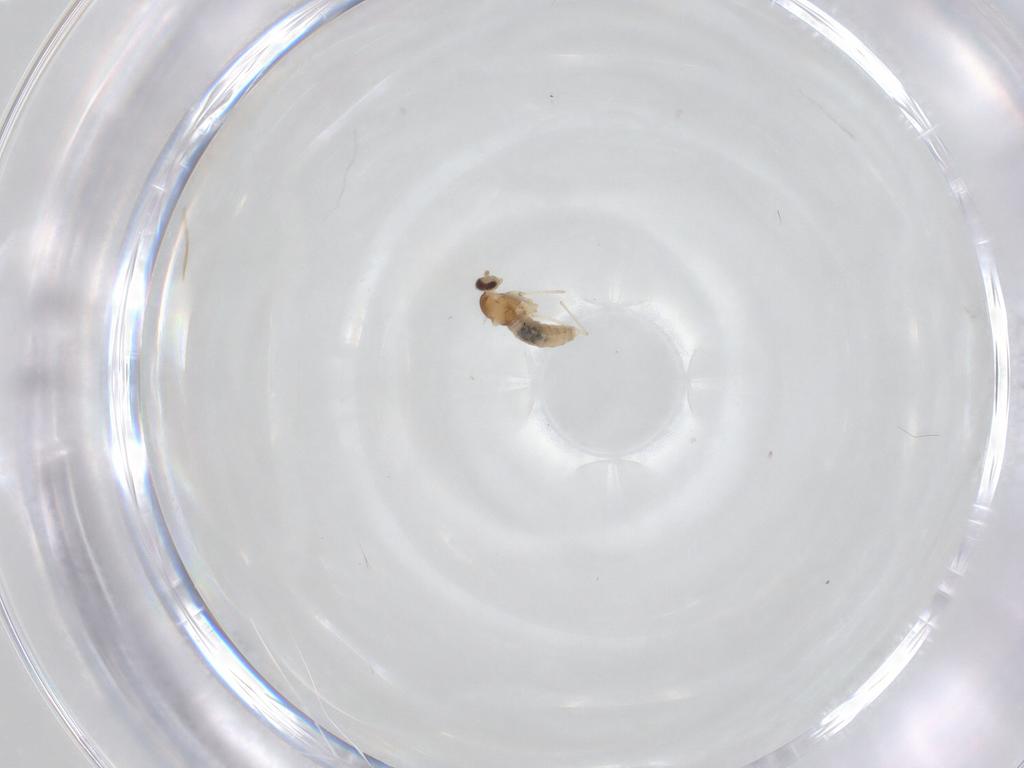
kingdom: Animalia
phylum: Arthropoda
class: Insecta
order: Diptera
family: Cecidomyiidae
